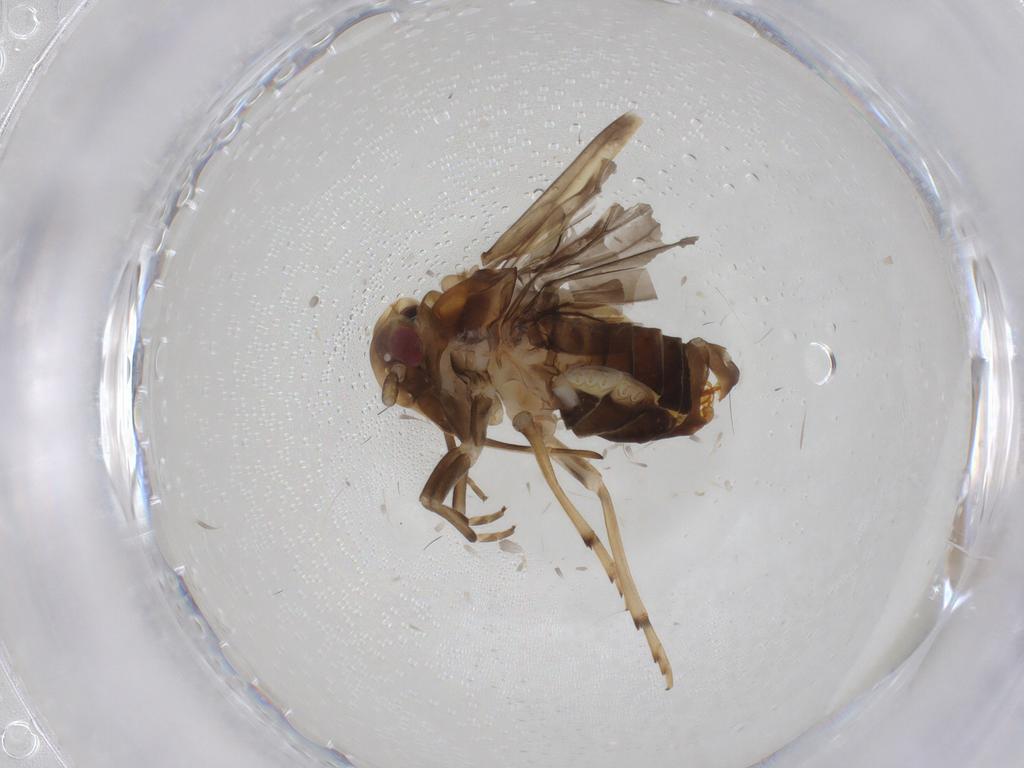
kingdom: Animalia
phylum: Arthropoda
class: Insecta
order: Hemiptera
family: Cixiidae
